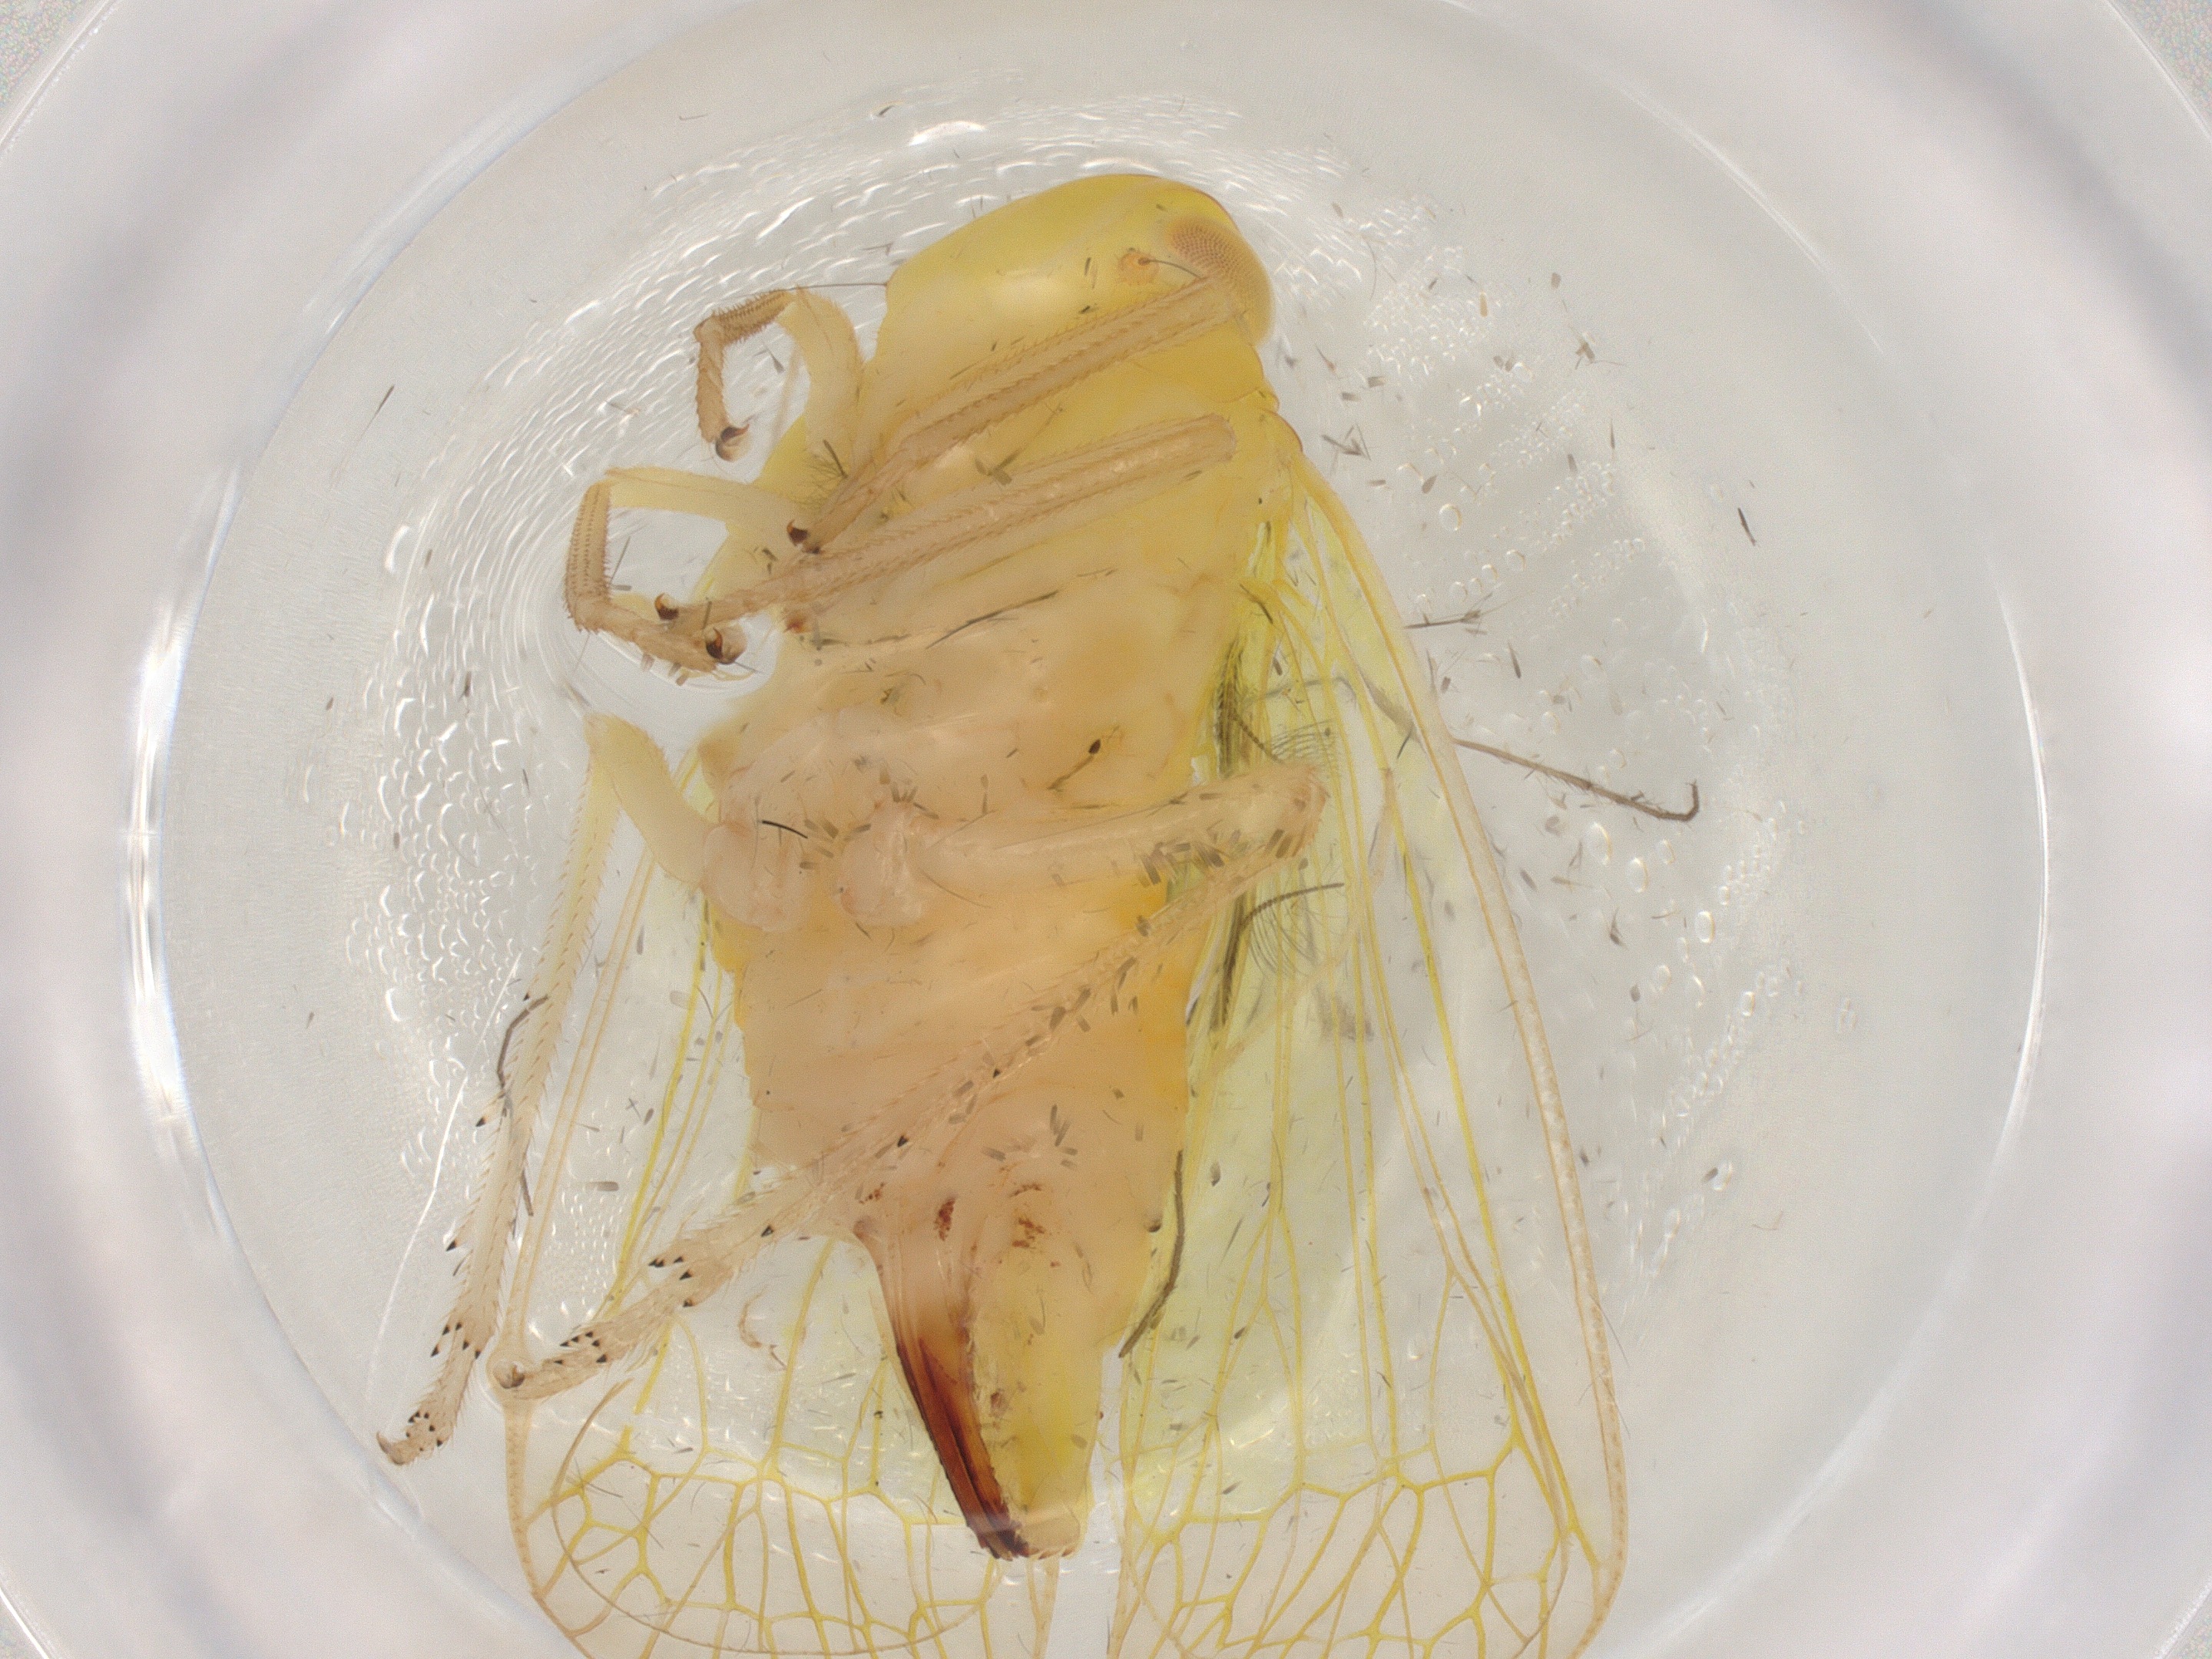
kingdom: Animalia
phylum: Arthropoda
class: Insecta
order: Hemiptera
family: Tropiduchidae
